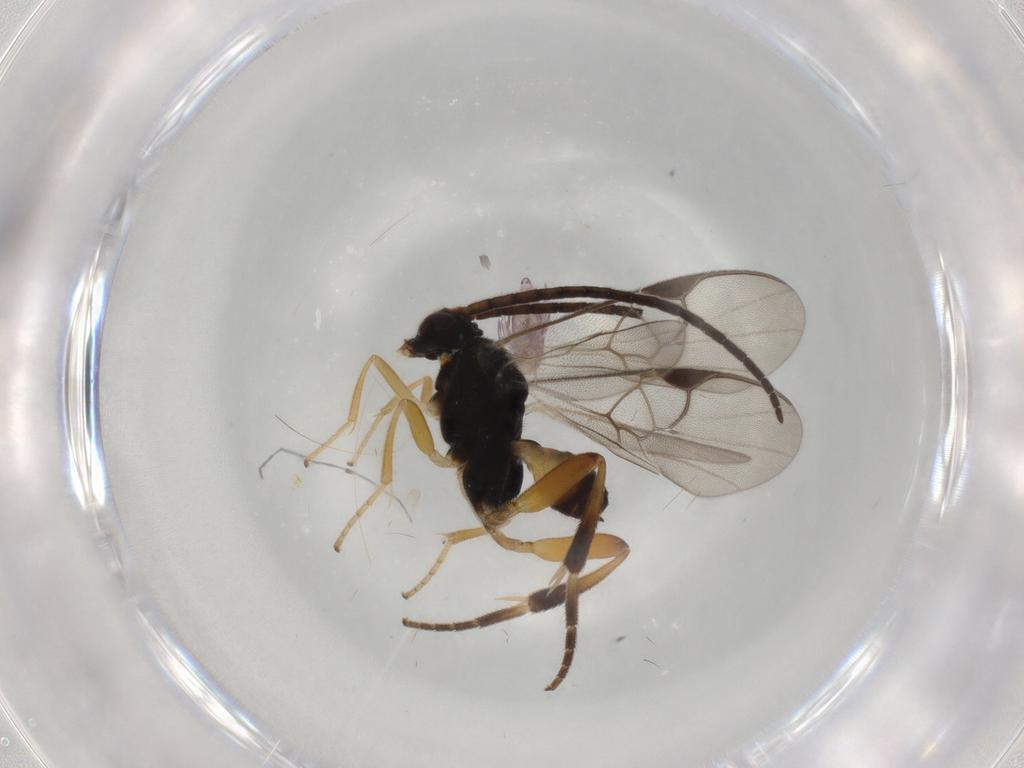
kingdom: Animalia
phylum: Arthropoda
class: Insecta
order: Hymenoptera
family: Braconidae
